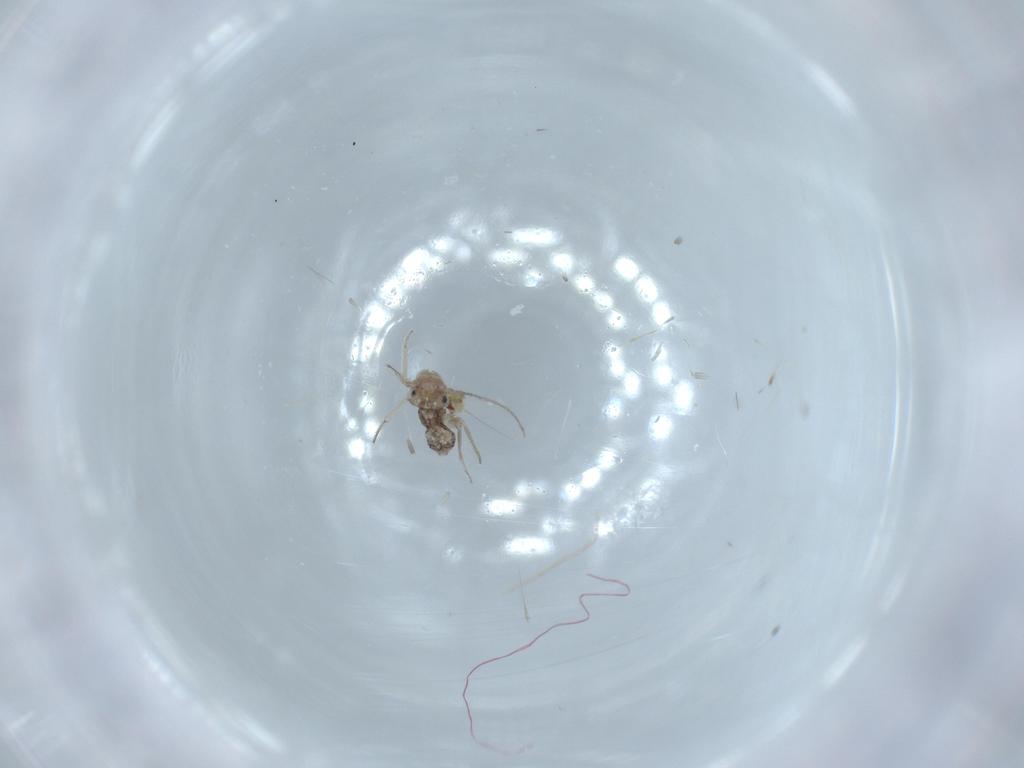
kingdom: Animalia
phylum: Arthropoda
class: Insecta
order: Psocodea
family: Lachesillidae
